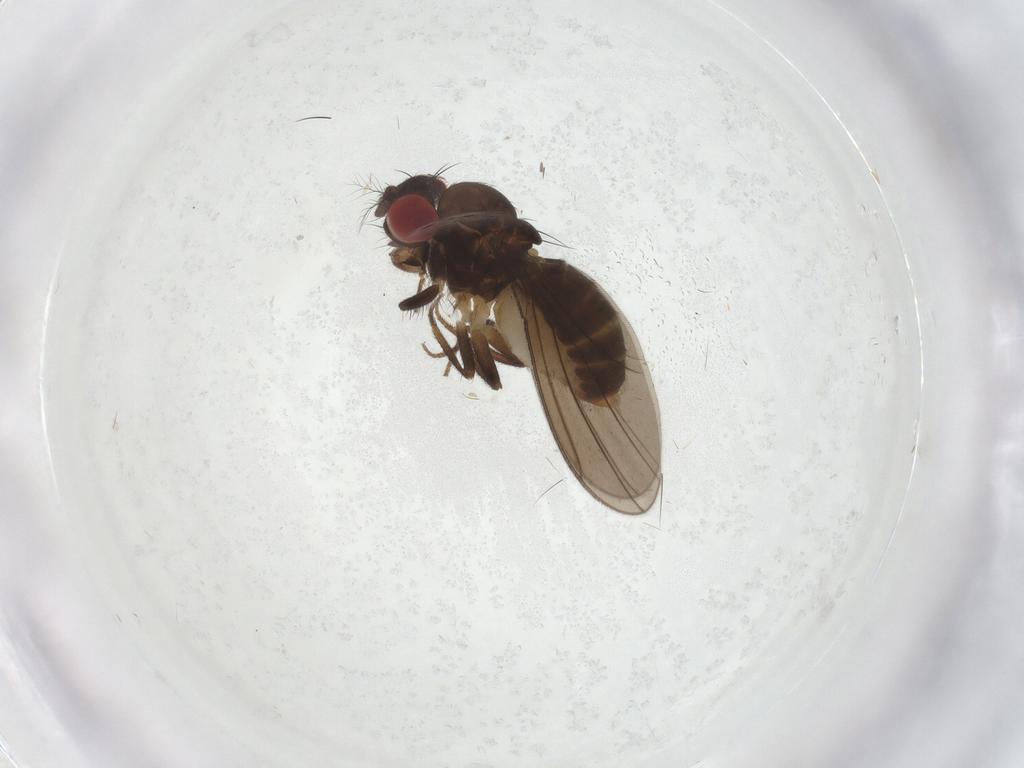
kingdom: Animalia
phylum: Arthropoda
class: Insecta
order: Diptera
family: Drosophilidae
